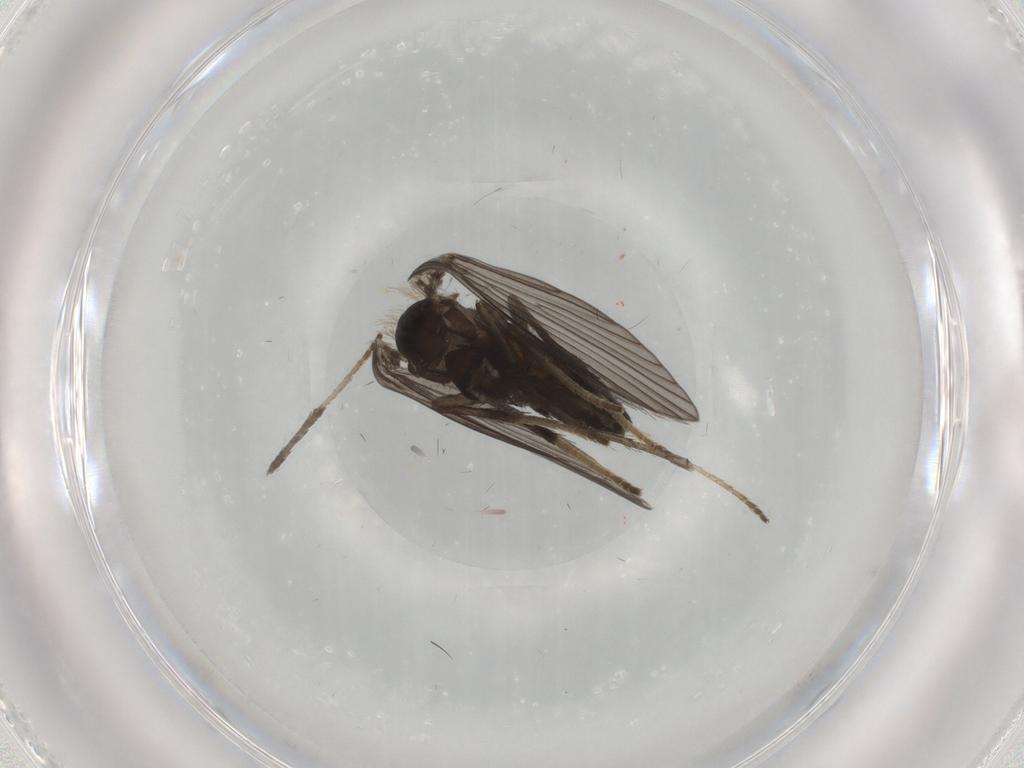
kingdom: Animalia
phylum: Arthropoda
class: Insecta
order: Diptera
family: Psychodidae
